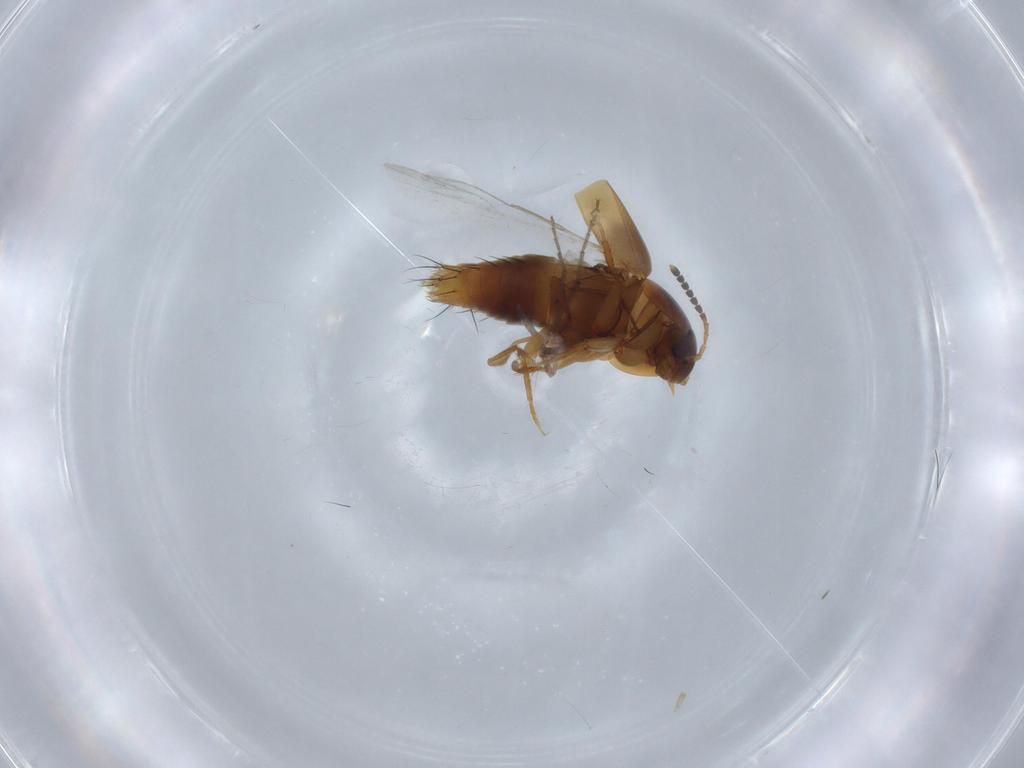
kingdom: Animalia
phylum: Arthropoda
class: Insecta
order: Coleoptera
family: Staphylinidae
